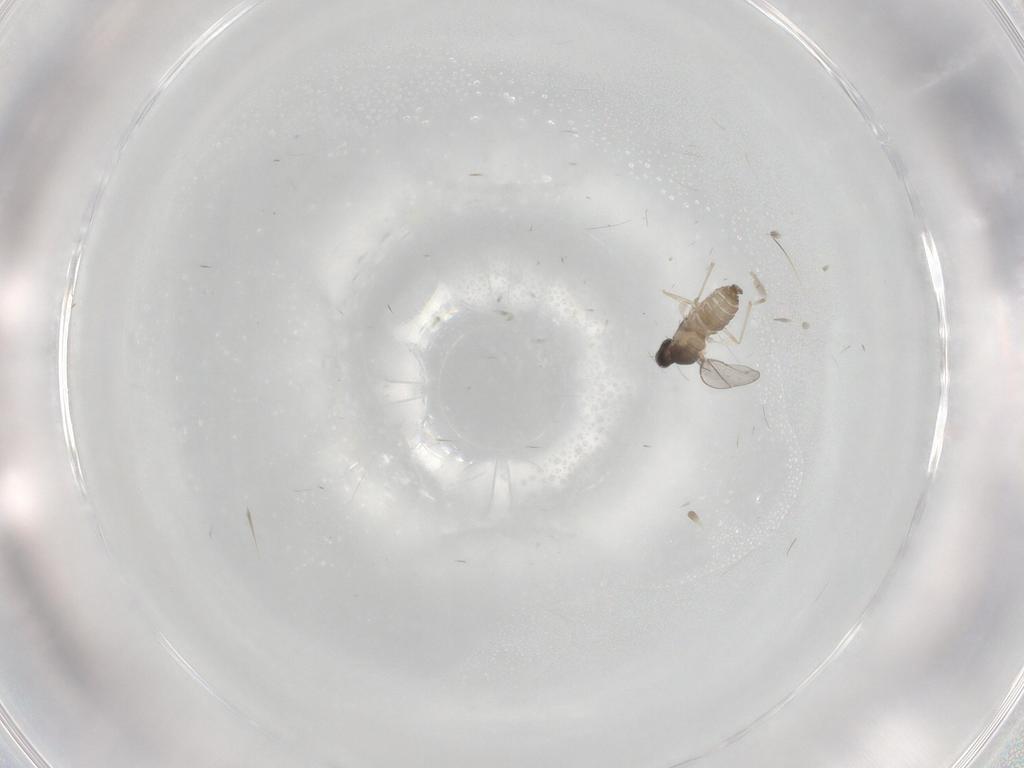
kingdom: Animalia
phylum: Arthropoda
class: Insecta
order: Diptera
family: Cecidomyiidae
